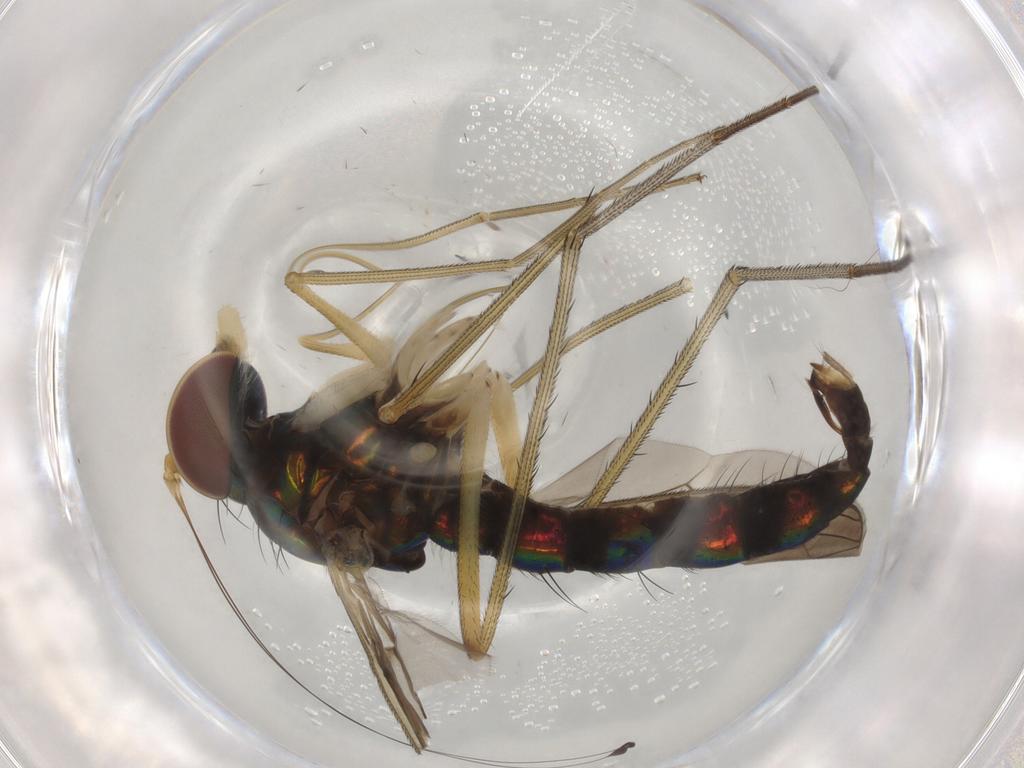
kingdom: Animalia
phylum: Arthropoda
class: Insecta
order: Diptera
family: Dolichopodidae
